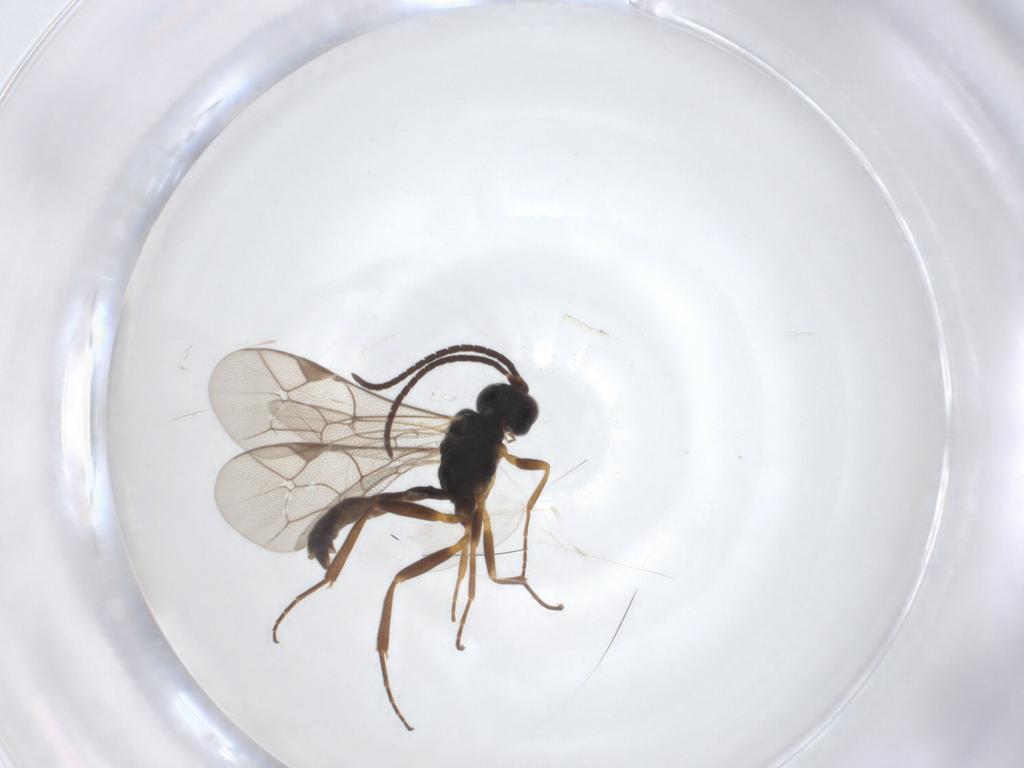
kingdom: Animalia
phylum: Arthropoda
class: Insecta
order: Hymenoptera
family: Ichneumonidae
